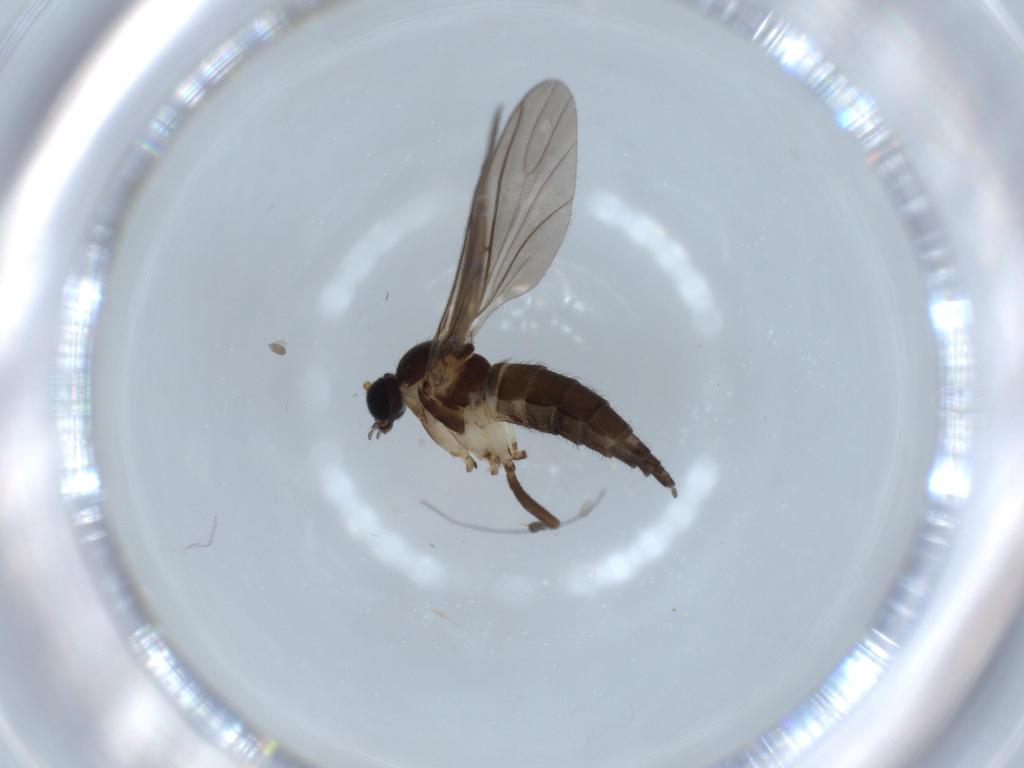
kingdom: Animalia
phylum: Arthropoda
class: Insecta
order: Diptera
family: Sciaridae
